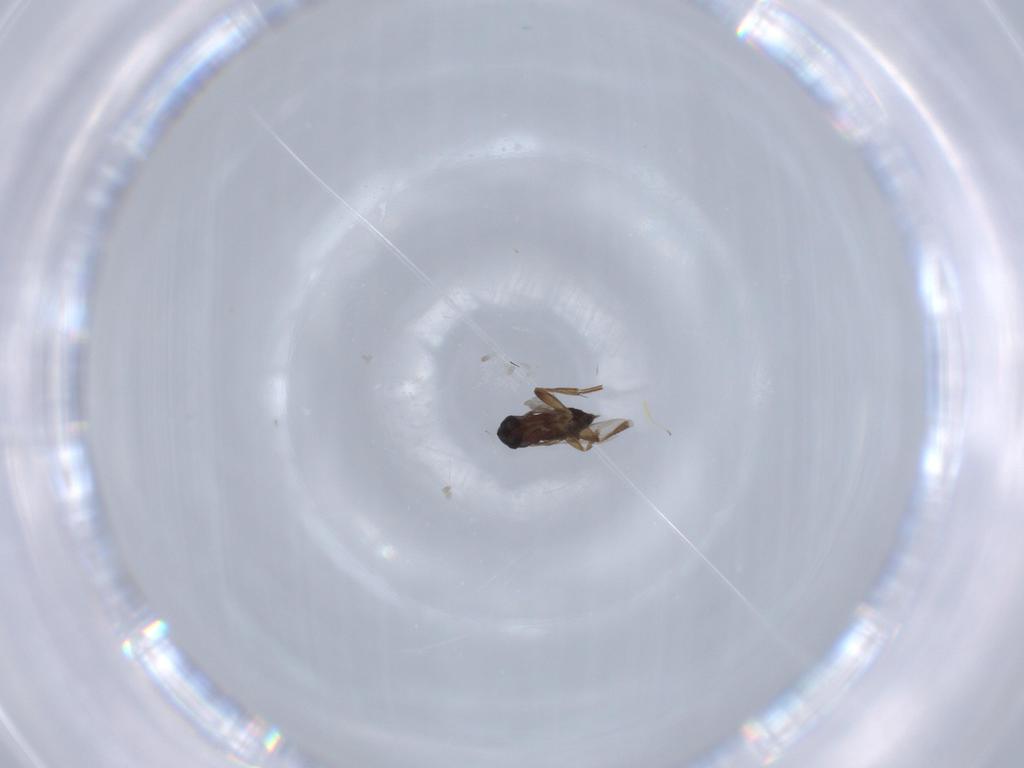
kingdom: Animalia
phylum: Arthropoda
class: Insecta
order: Diptera
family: Phoridae
